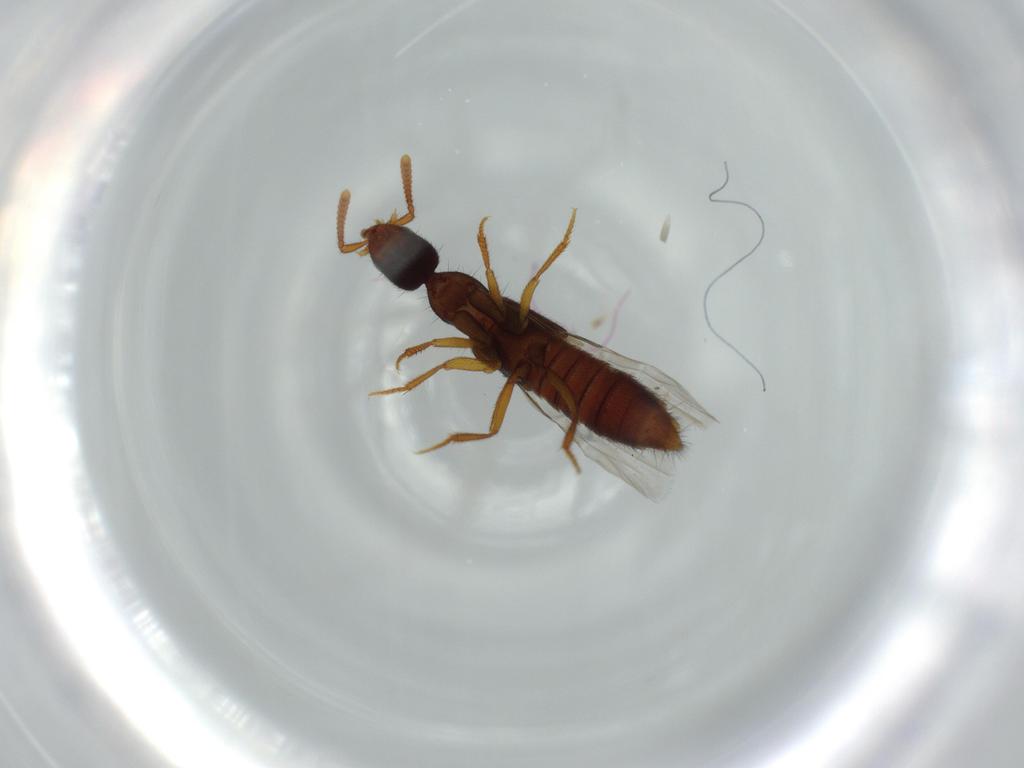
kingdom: Animalia
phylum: Arthropoda
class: Insecta
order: Coleoptera
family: Staphylinidae
